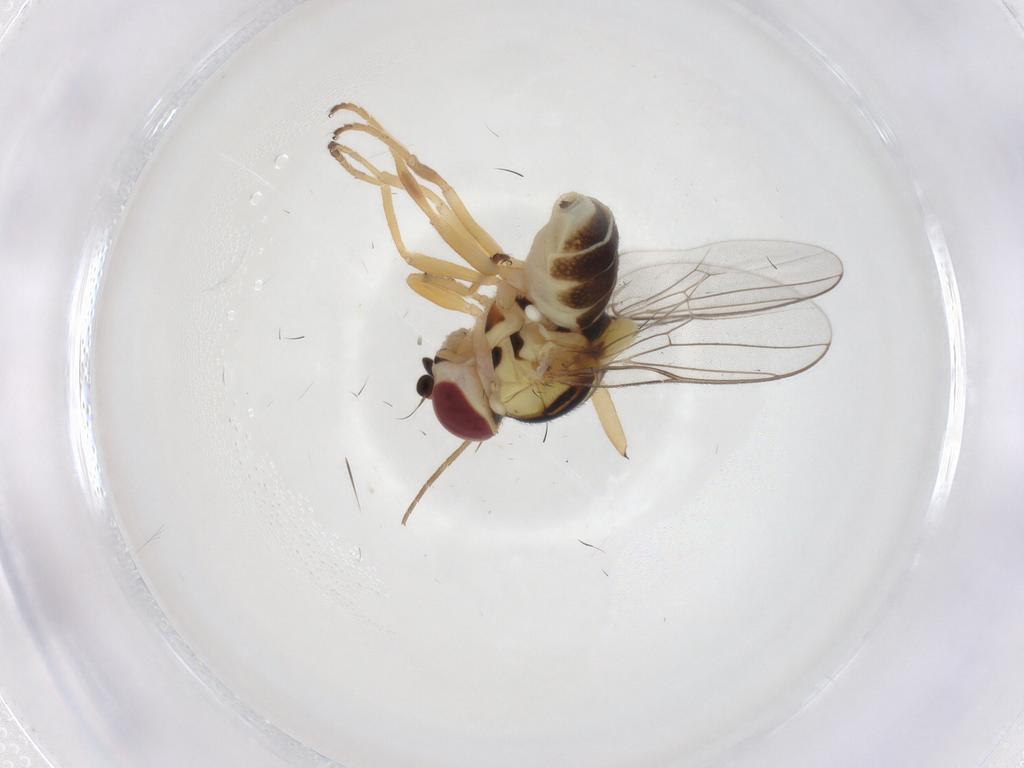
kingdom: Animalia
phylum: Arthropoda
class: Insecta
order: Diptera
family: Chloropidae
